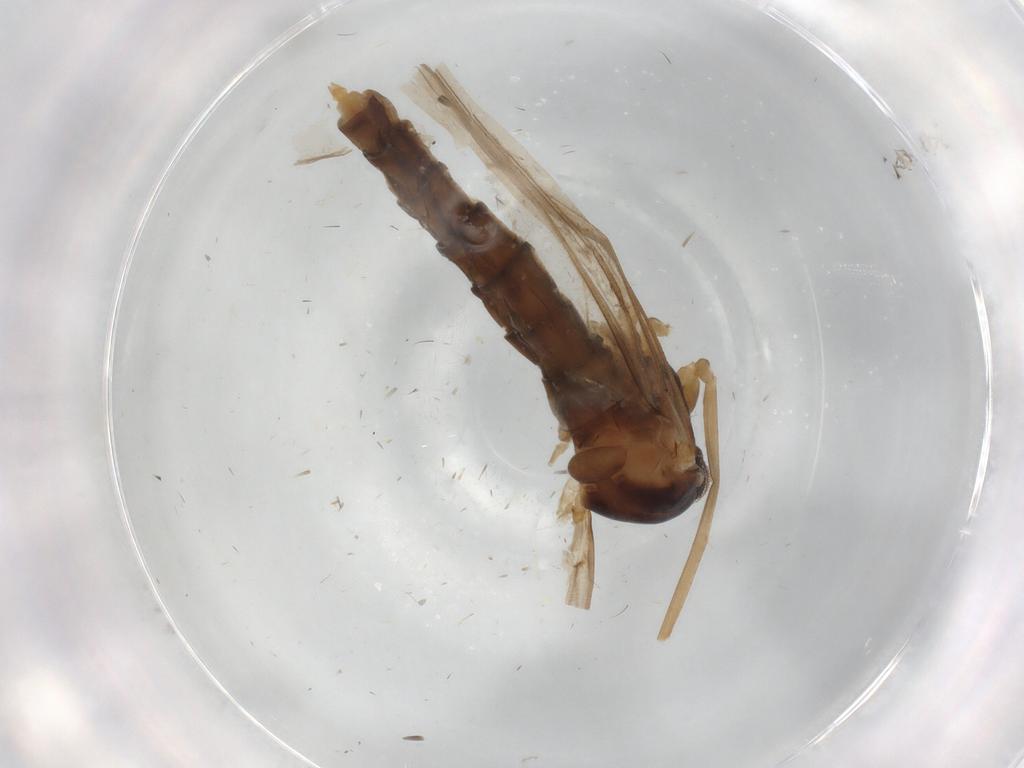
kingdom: Animalia
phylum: Arthropoda
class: Insecta
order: Diptera
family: Cecidomyiidae
